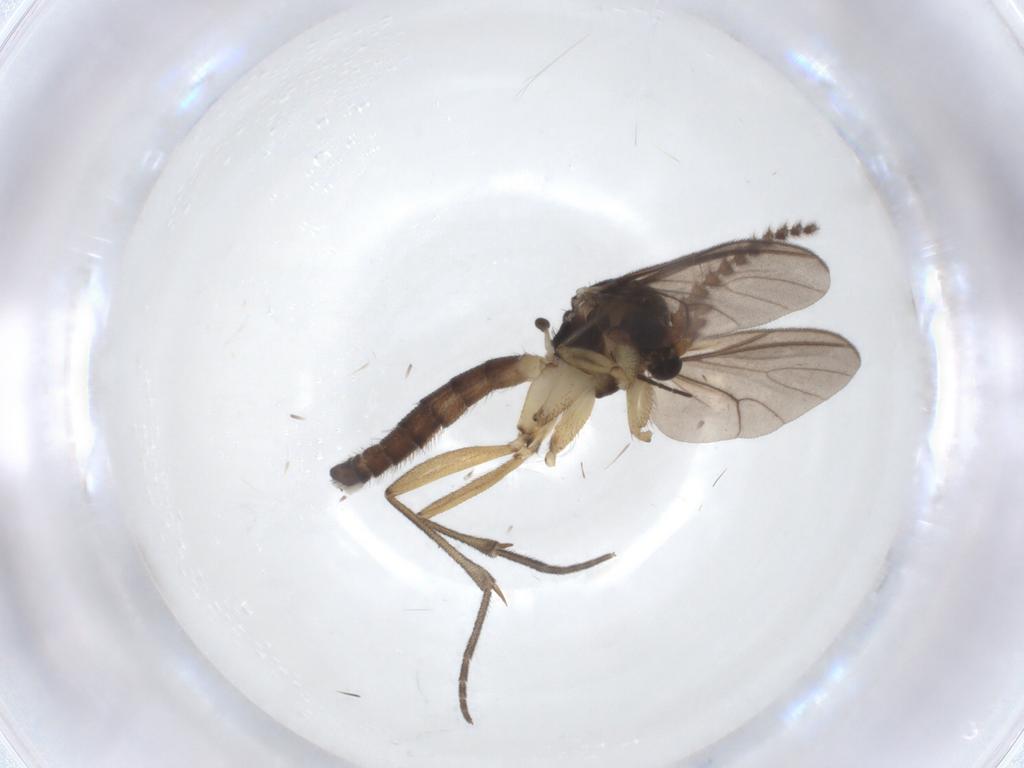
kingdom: Animalia
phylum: Arthropoda
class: Insecta
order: Diptera
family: Mycetophilidae
